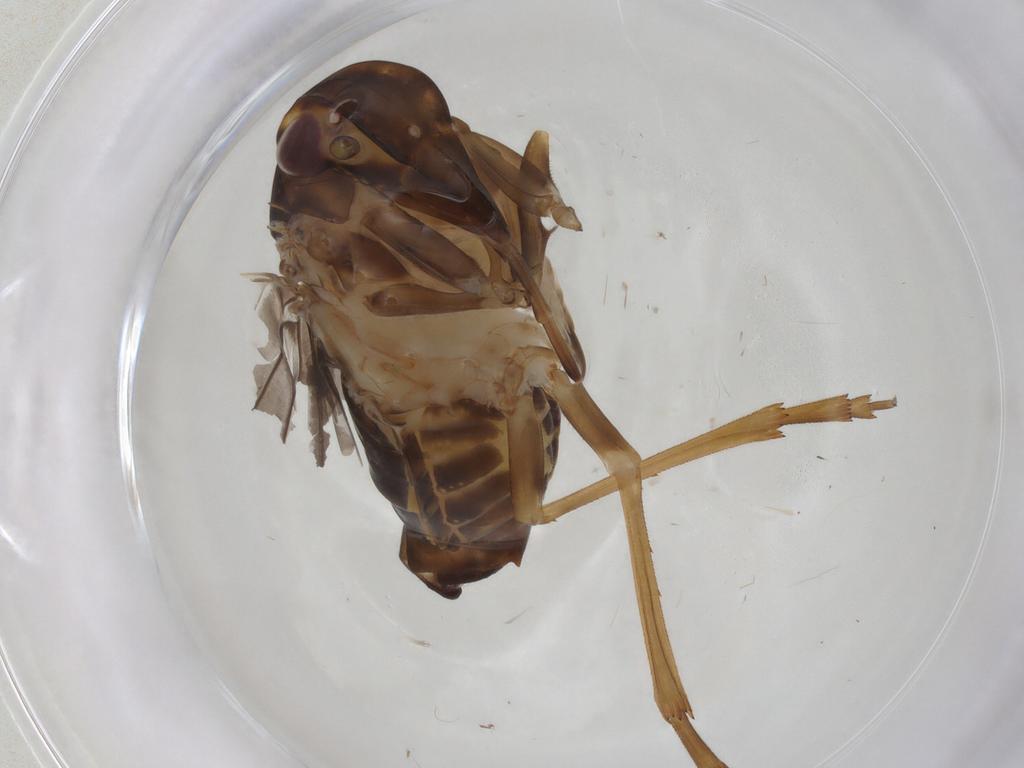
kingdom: Animalia
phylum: Arthropoda
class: Insecta
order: Hemiptera
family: Cixiidae
